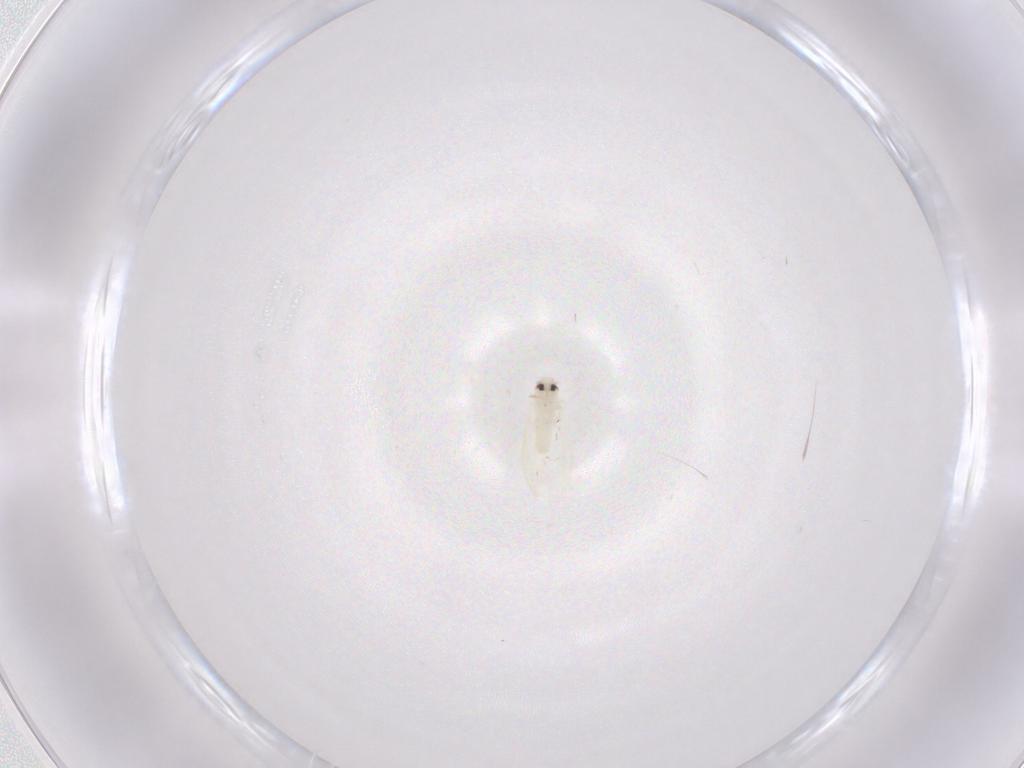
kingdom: Animalia
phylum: Arthropoda
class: Insecta
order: Hemiptera
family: Aleyrodidae
